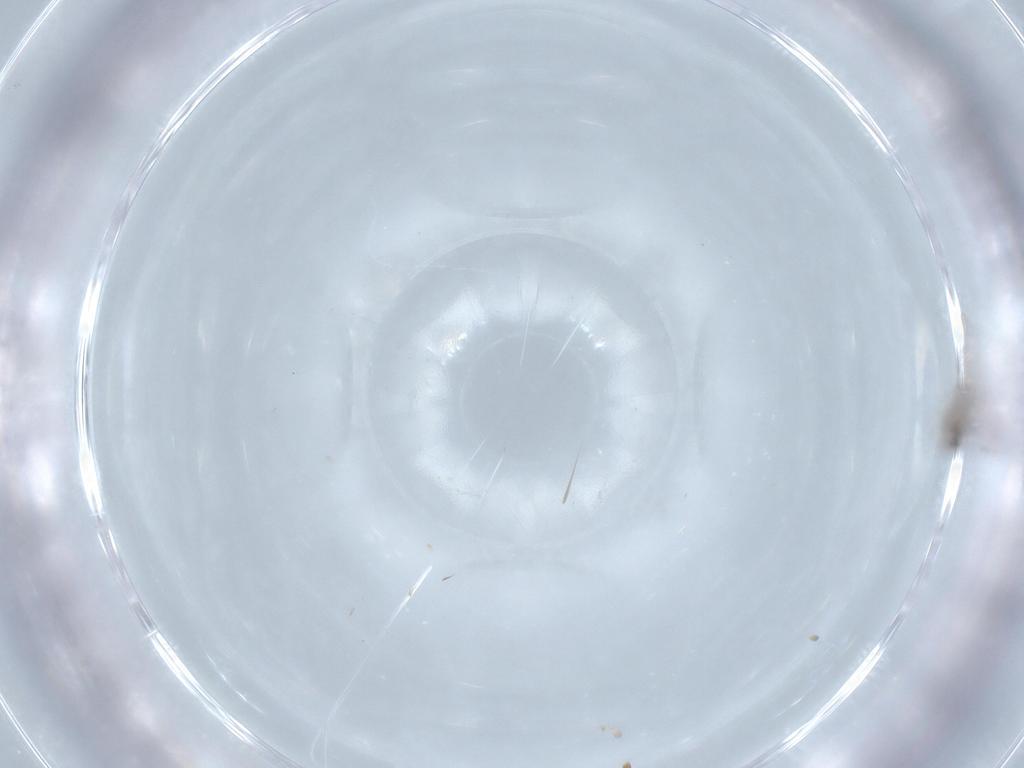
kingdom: Animalia
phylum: Arthropoda
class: Insecta
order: Diptera
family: Cecidomyiidae
